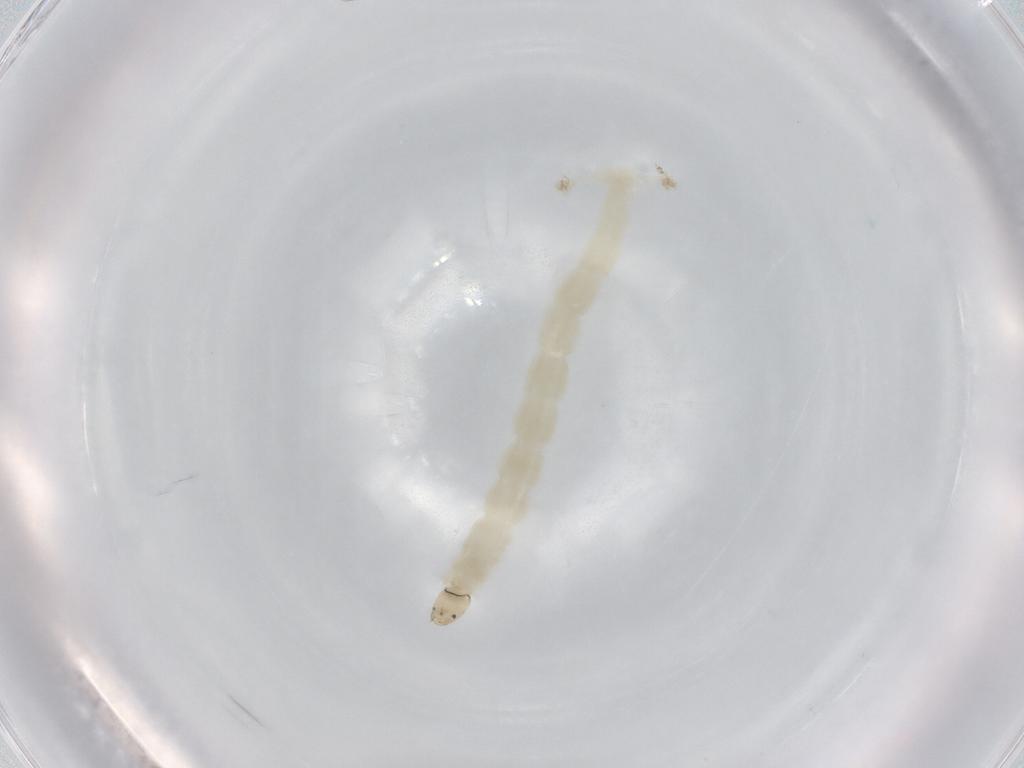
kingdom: Animalia
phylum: Arthropoda
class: Insecta
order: Diptera
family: Chironomidae
